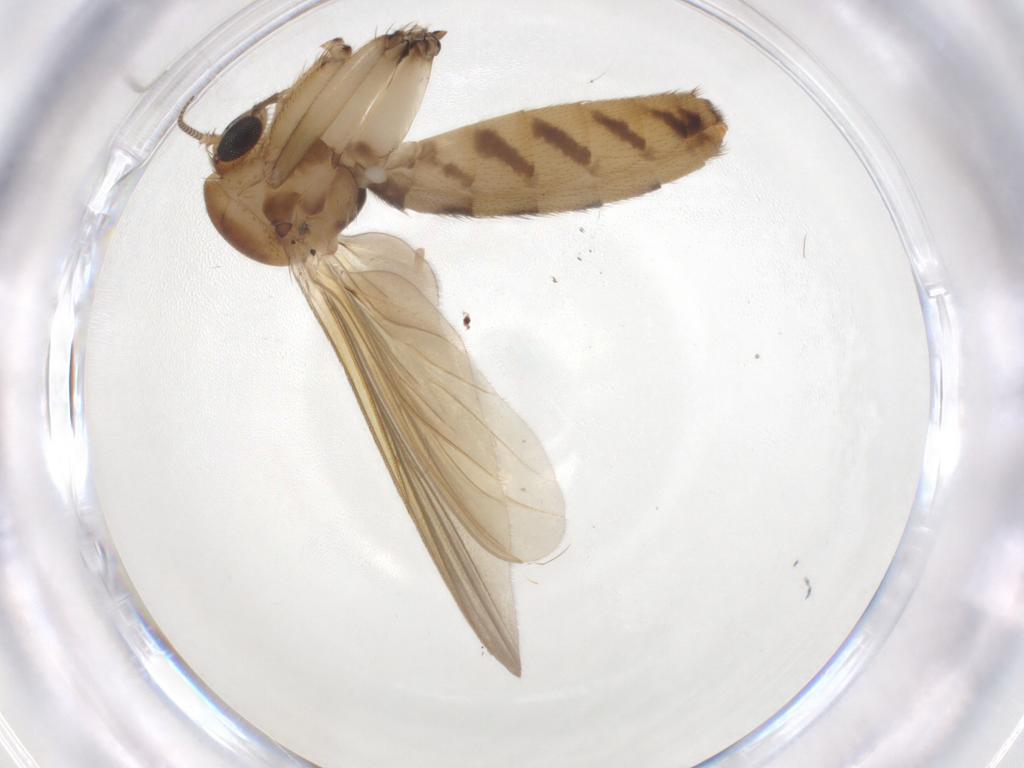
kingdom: Animalia
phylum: Arthropoda
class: Insecta
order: Diptera
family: Mycetophilidae
